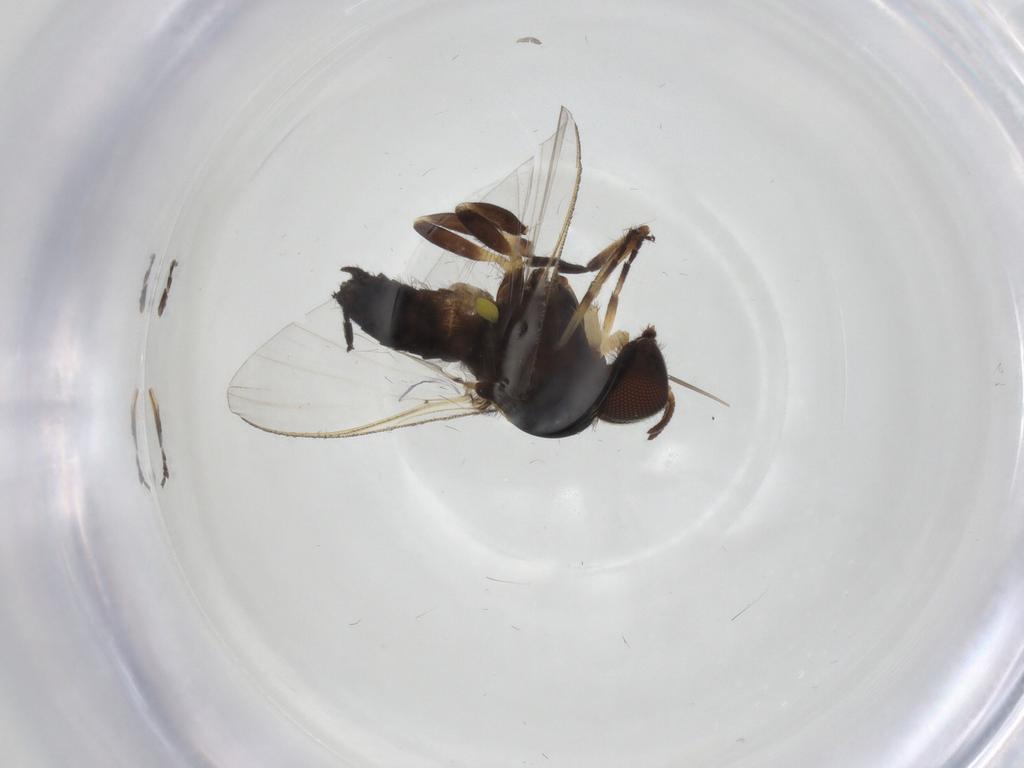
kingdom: Animalia
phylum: Arthropoda
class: Insecta
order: Diptera
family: Simuliidae
